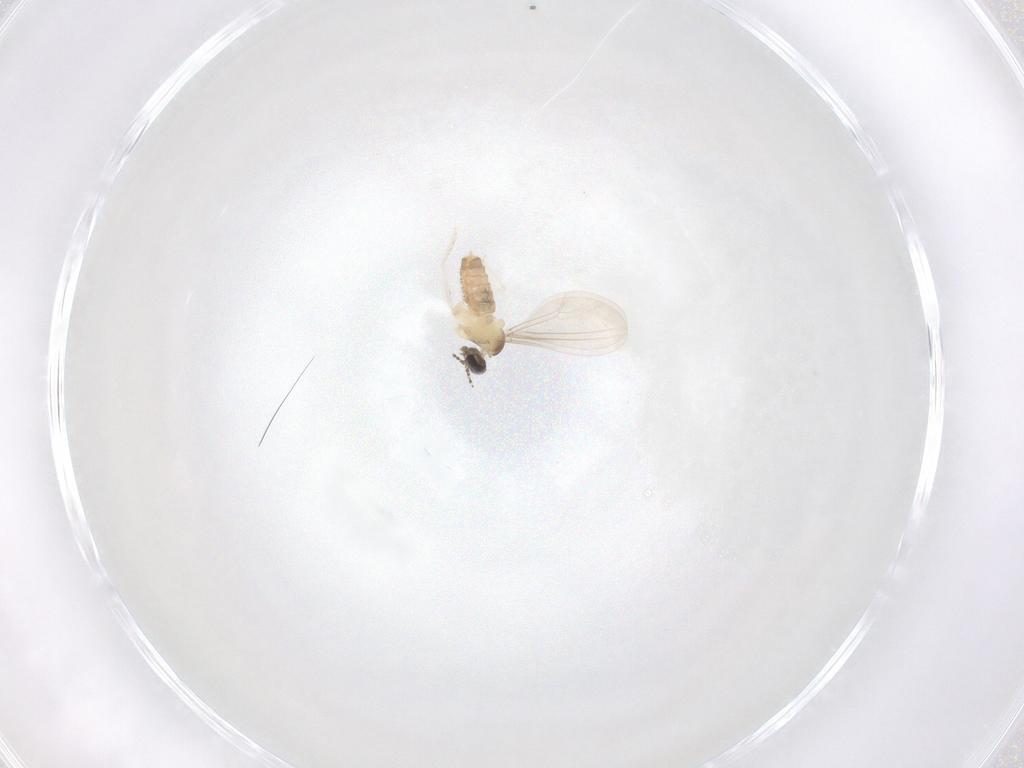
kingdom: Animalia
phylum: Arthropoda
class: Insecta
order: Diptera
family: Cecidomyiidae
